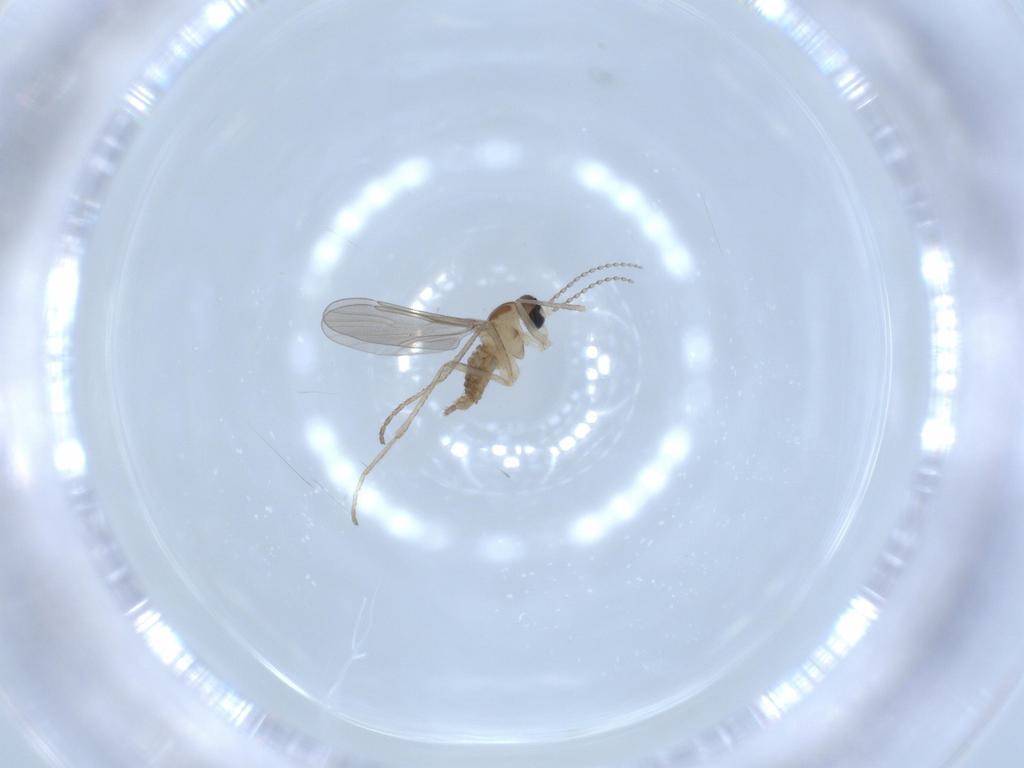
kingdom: Animalia
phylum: Arthropoda
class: Insecta
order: Diptera
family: Cecidomyiidae
